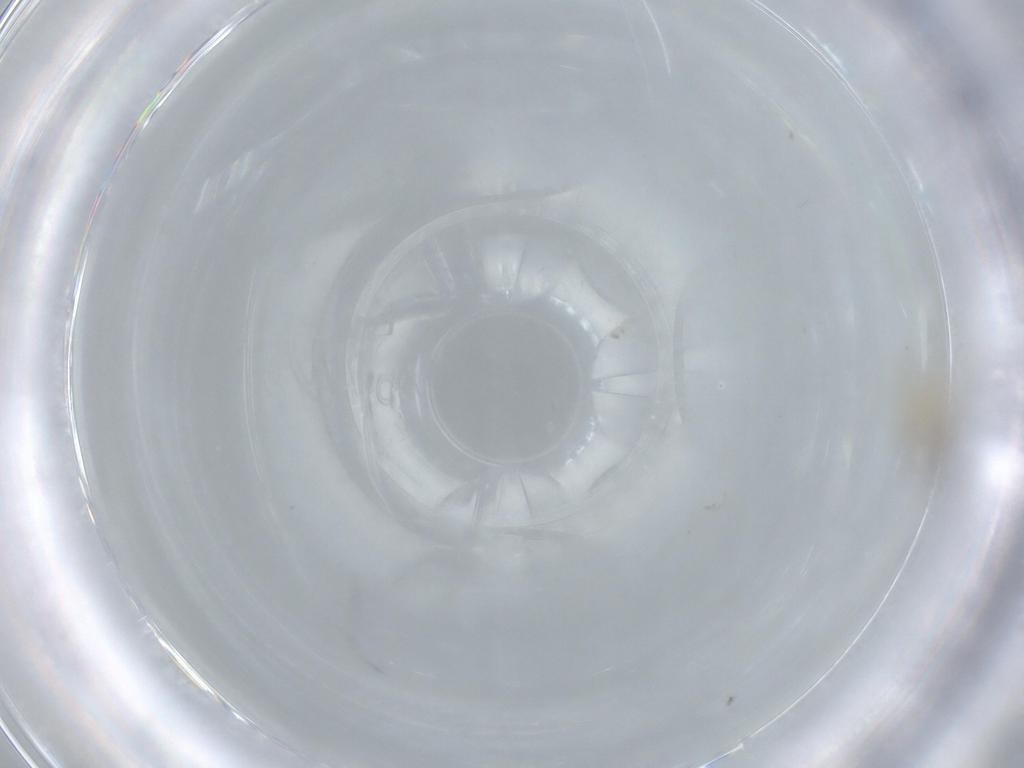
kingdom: Animalia
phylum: Arthropoda
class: Insecta
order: Diptera
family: Cecidomyiidae
